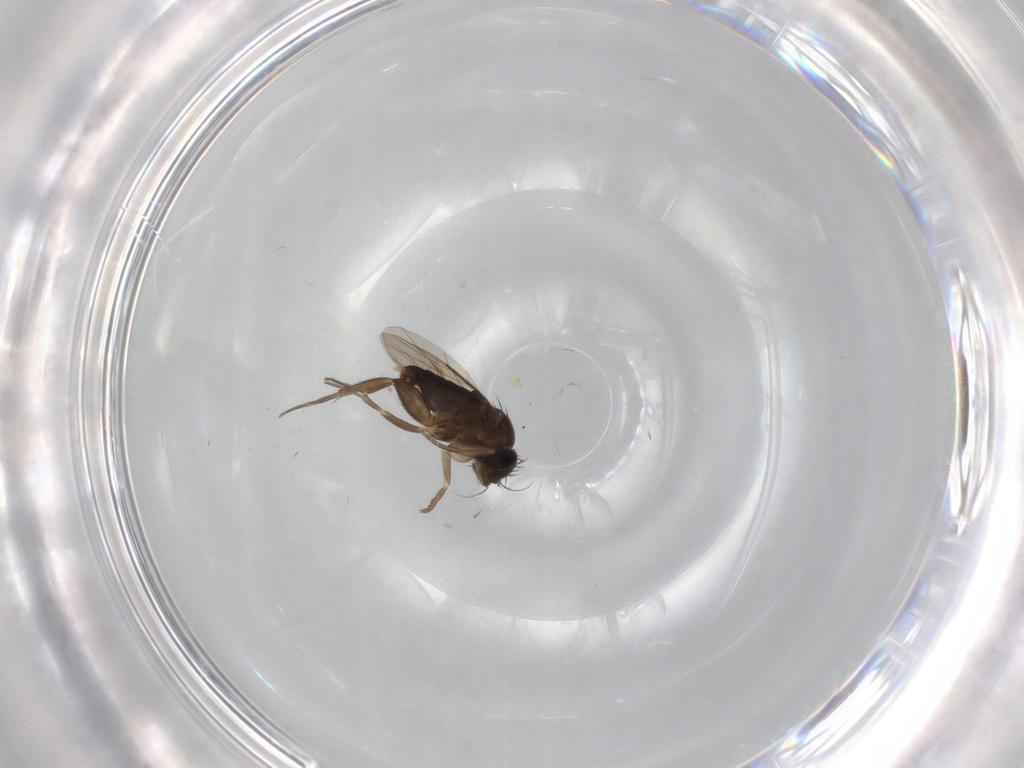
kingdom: Animalia
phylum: Arthropoda
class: Insecta
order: Diptera
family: Phoridae
